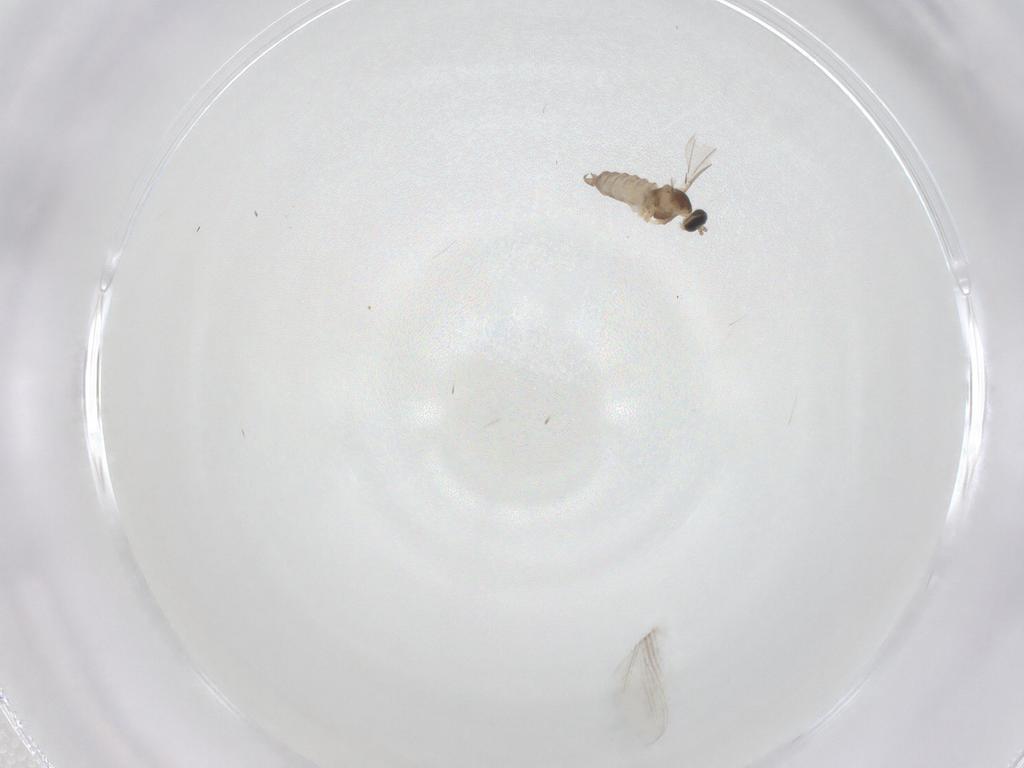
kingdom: Animalia
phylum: Arthropoda
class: Insecta
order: Diptera
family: Cecidomyiidae
